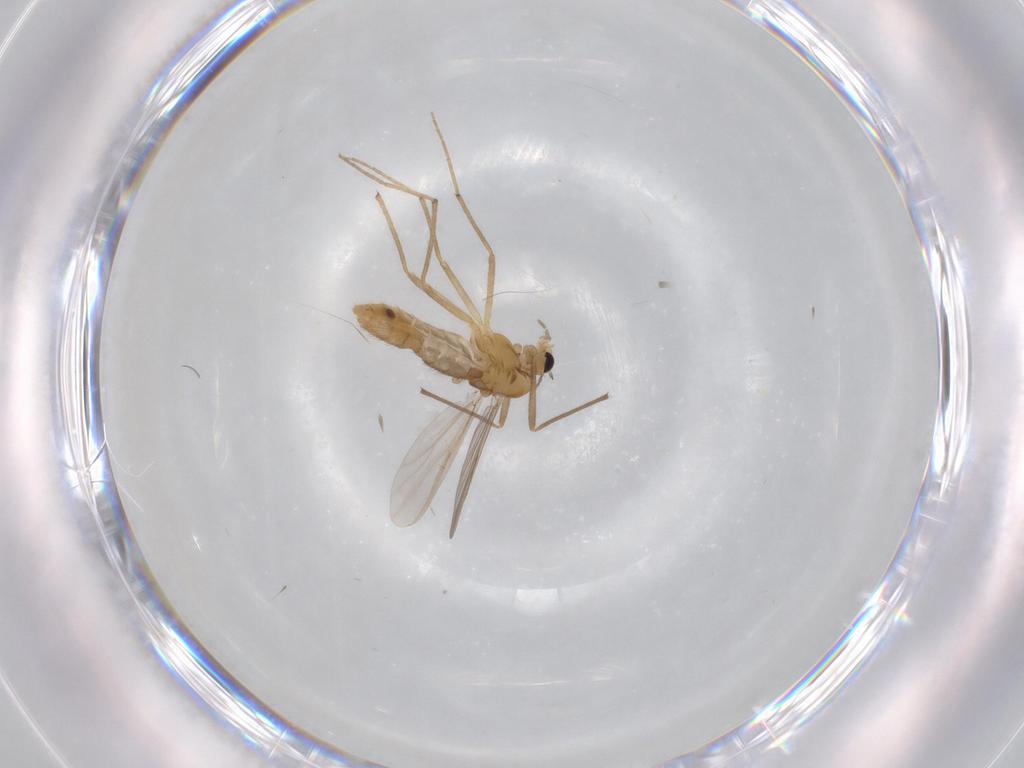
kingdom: Animalia
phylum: Arthropoda
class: Insecta
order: Diptera
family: Chironomidae
